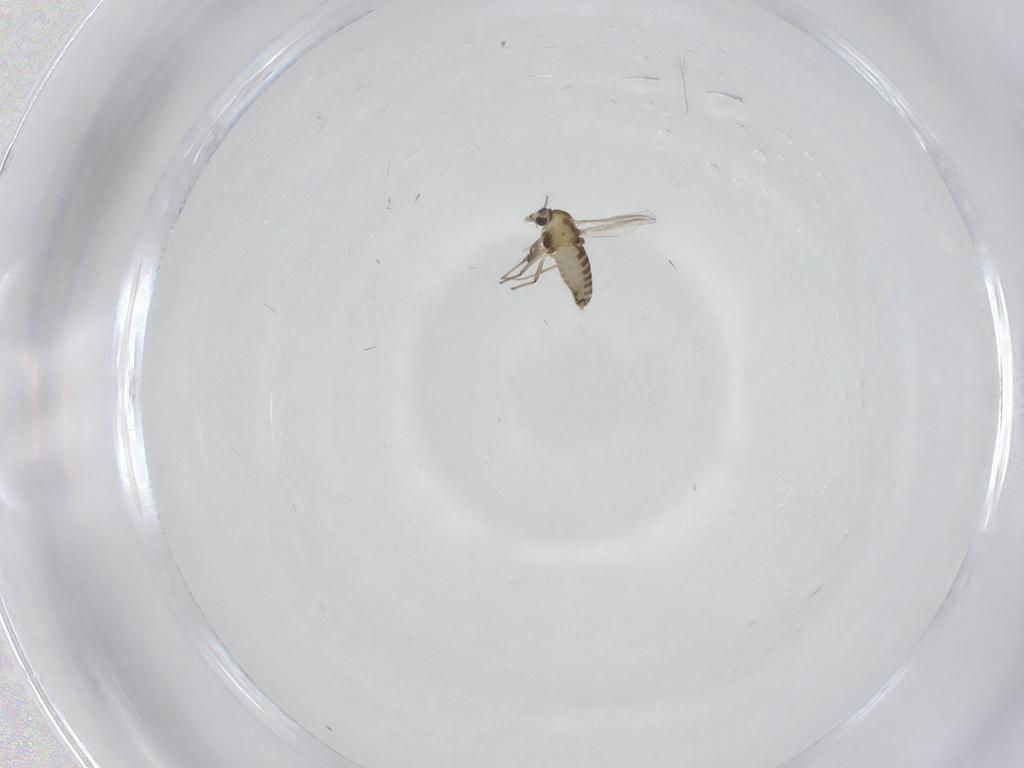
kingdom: Animalia
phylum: Arthropoda
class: Insecta
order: Diptera
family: Chironomidae
